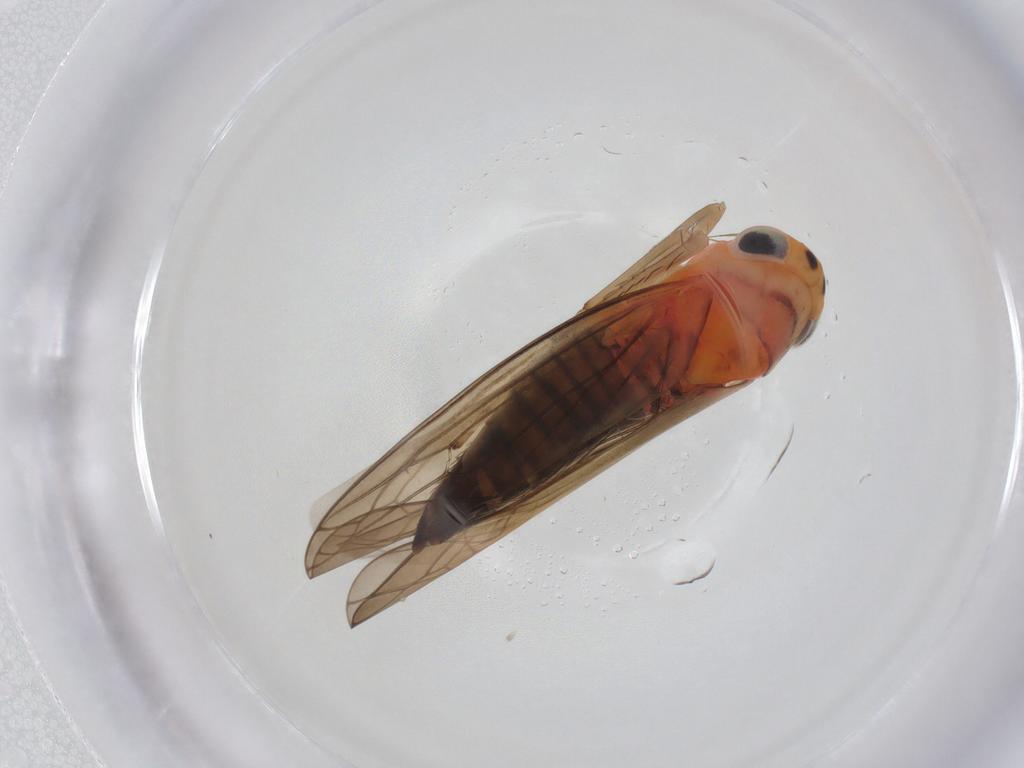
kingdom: Animalia
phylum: Arthropoda
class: Insecta
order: Hemiptera
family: Cicadellidae
